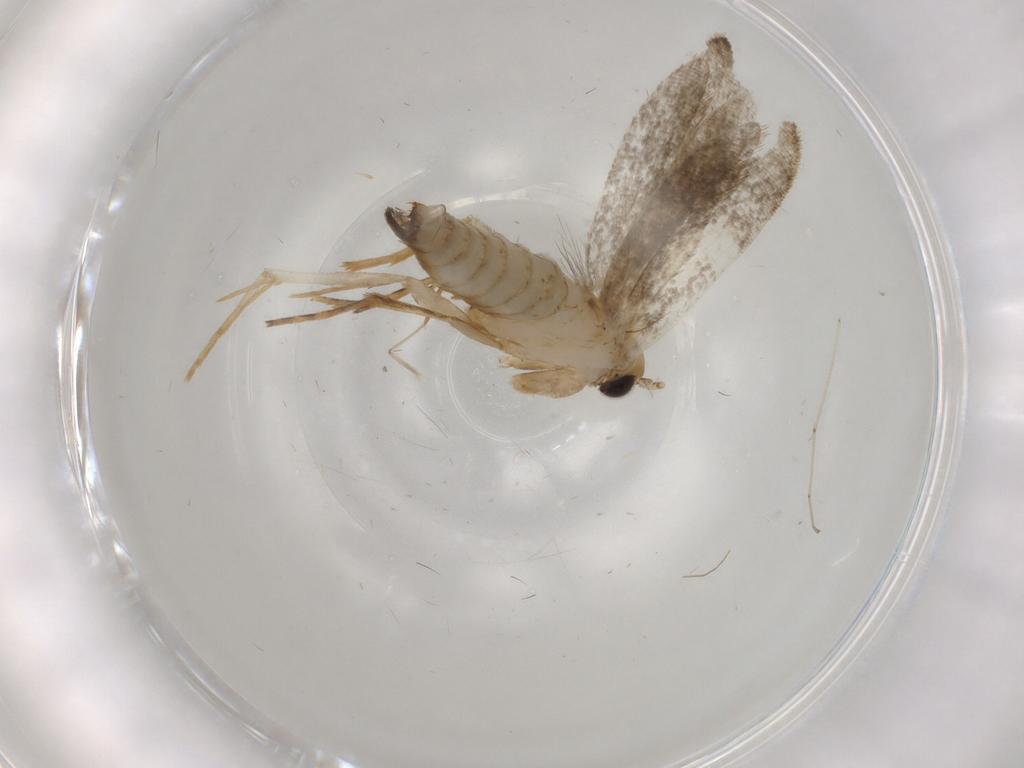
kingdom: Animalia
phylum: Arthropoda
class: Insecta
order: Lepidoptera
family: Tineidae
